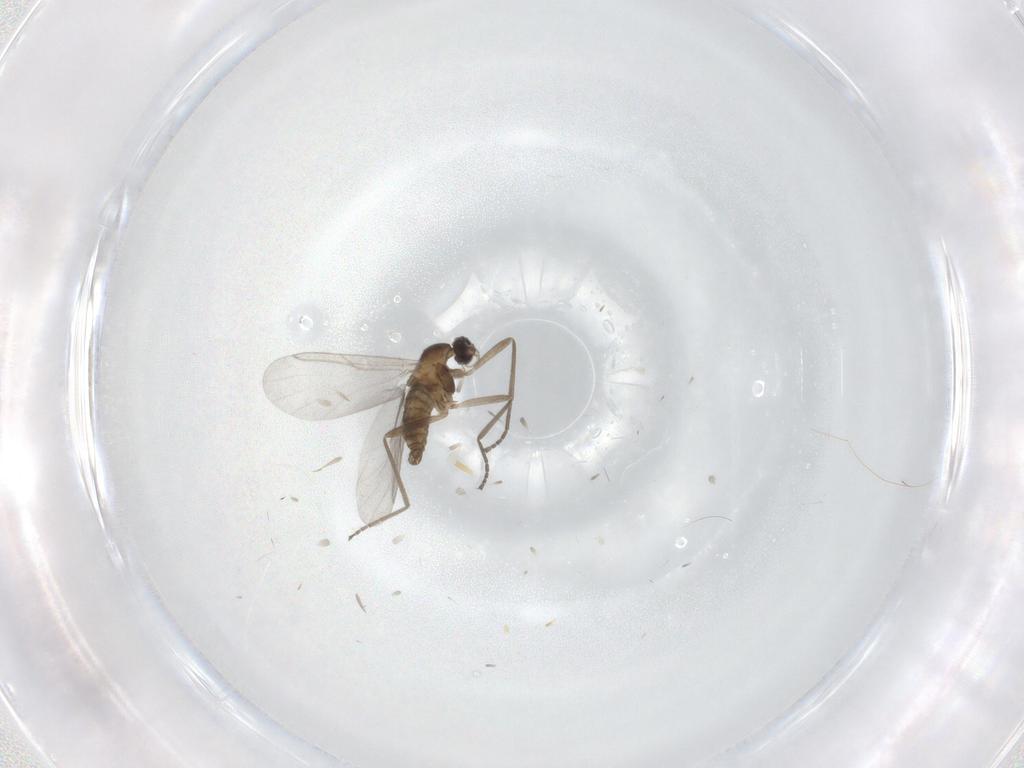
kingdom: Animalia
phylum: Arthropoda
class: Insecta
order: Diptera
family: Cecidomyiidae
